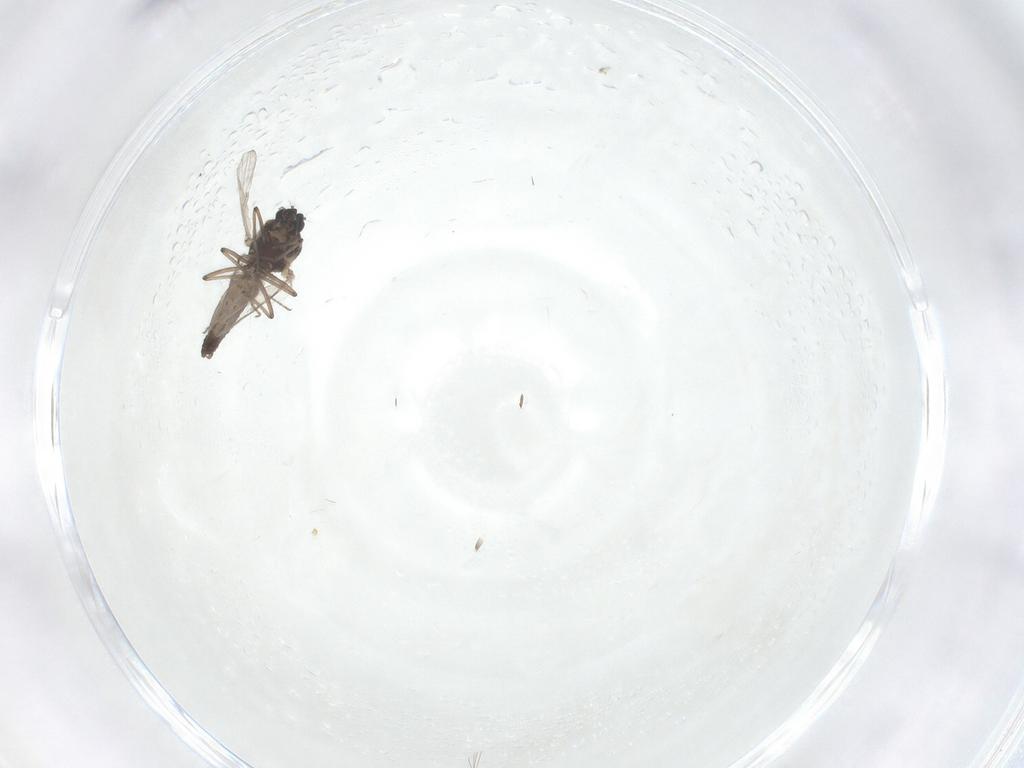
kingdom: Animalia
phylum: Arthropoda
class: Insecta
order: Diptera
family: Ceratopogonidae
